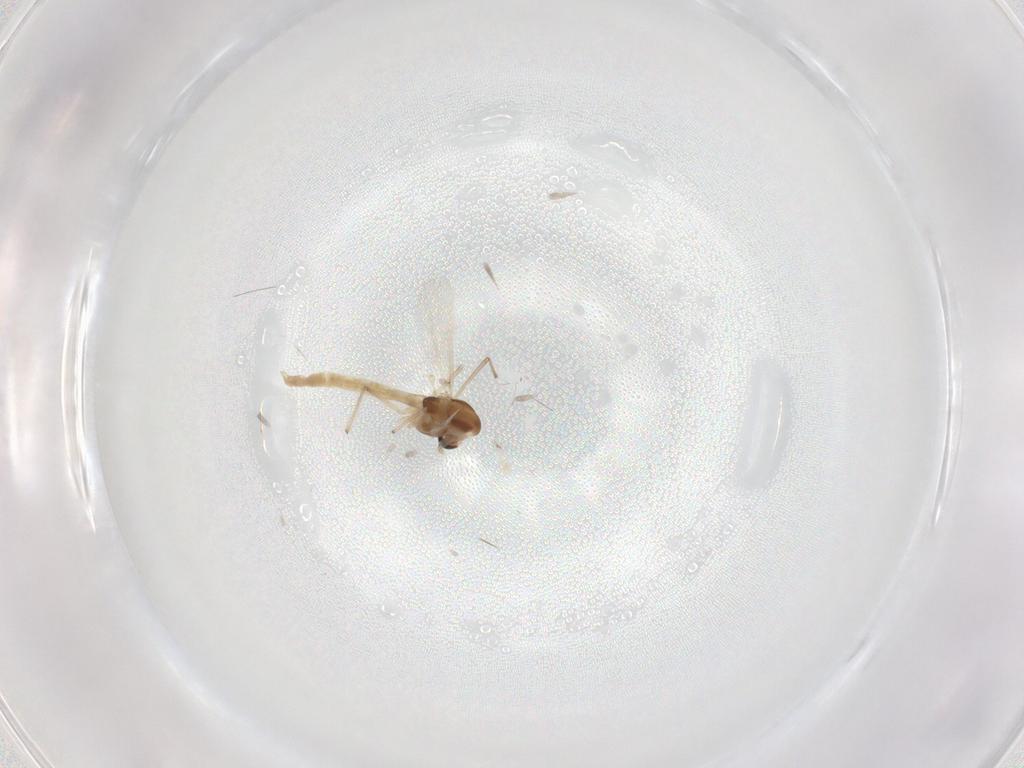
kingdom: Animalia
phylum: Arthropoda
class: Insecta
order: Diptera
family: Chironomidae
